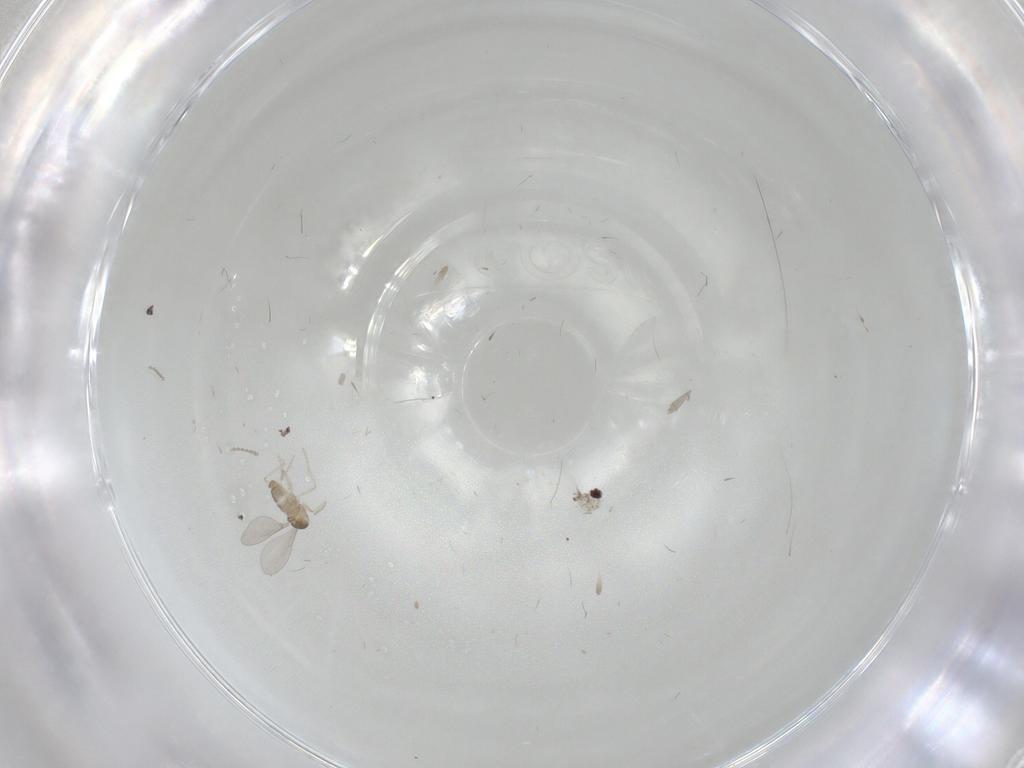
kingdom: Animalia
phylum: Arthropoda
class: Insecta
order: Diptera
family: Cecidomyiidae
